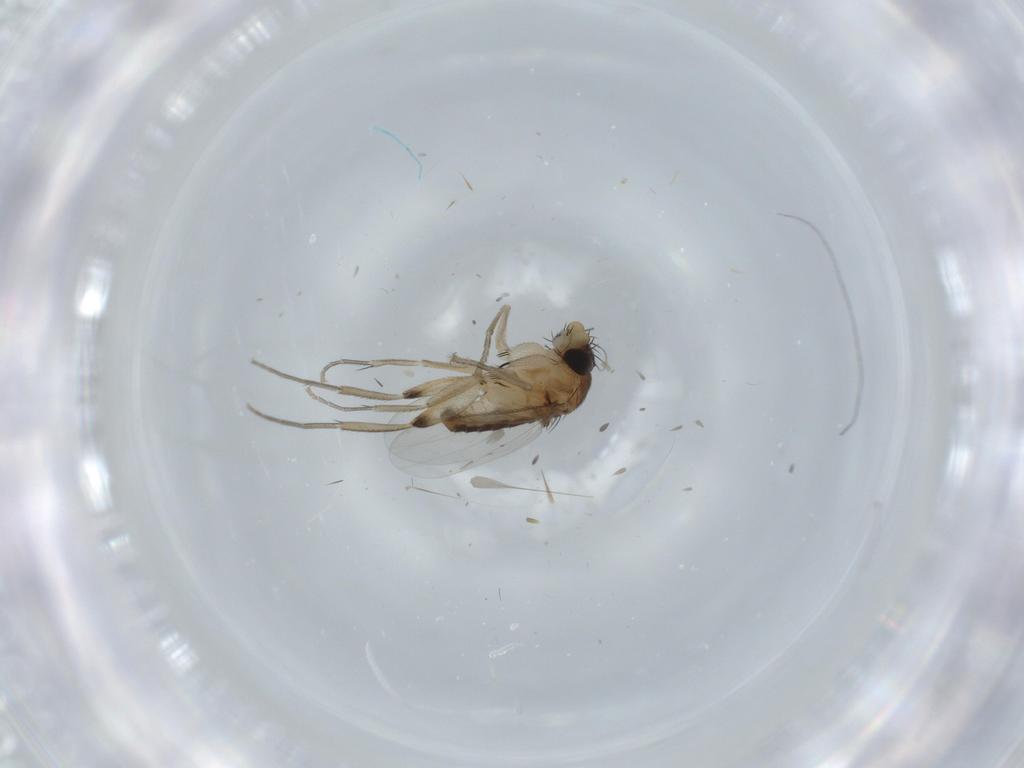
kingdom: Animalia
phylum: Arthropoda
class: Insecta
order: Diptera
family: Phoridae
